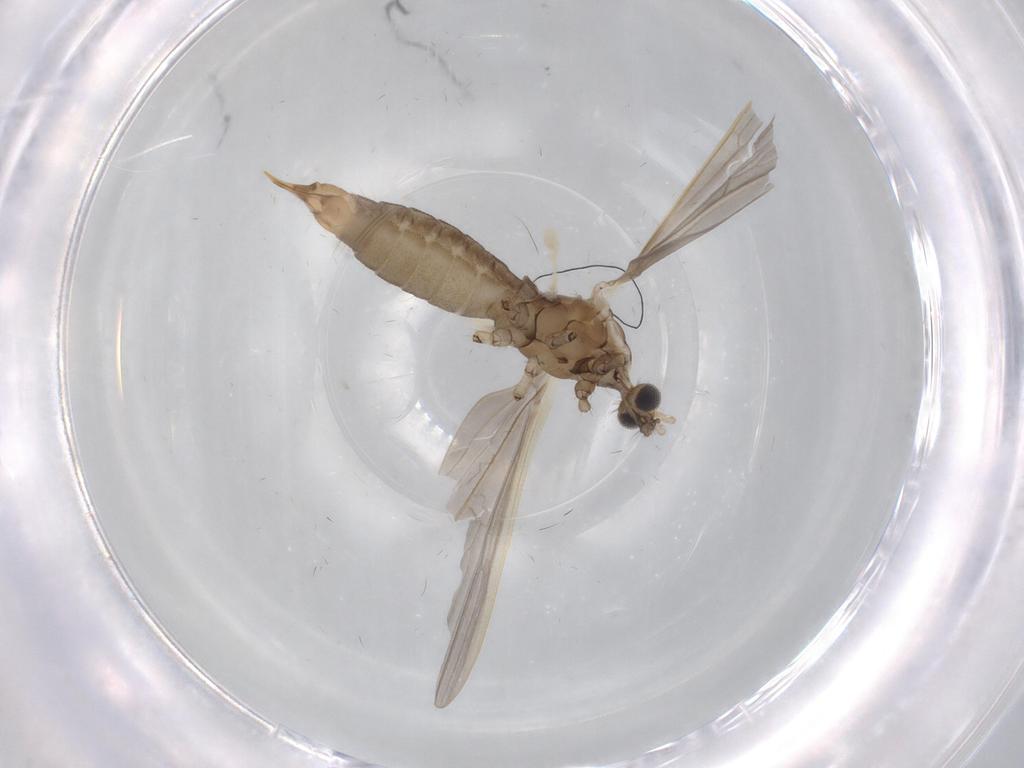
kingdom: Animalia
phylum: Arthropoda
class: Insecta
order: Diptera
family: Limoniidae
